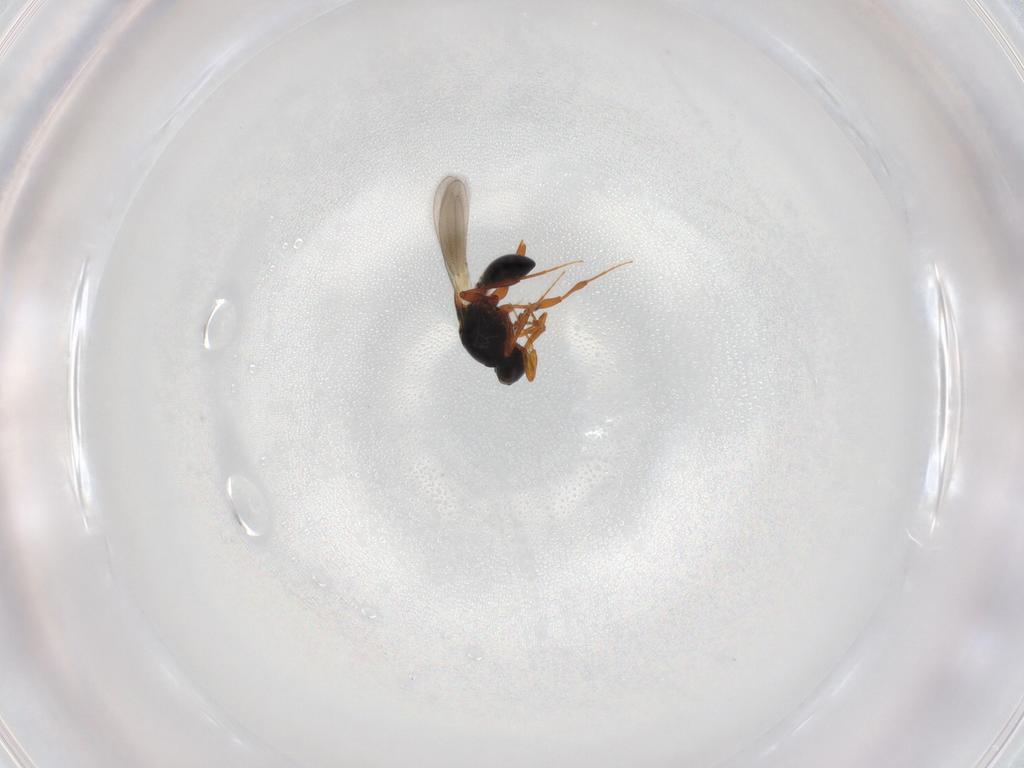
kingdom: Animalia
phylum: Arthropoda
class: Insecta
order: Hymenoptera
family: Platygastridae
